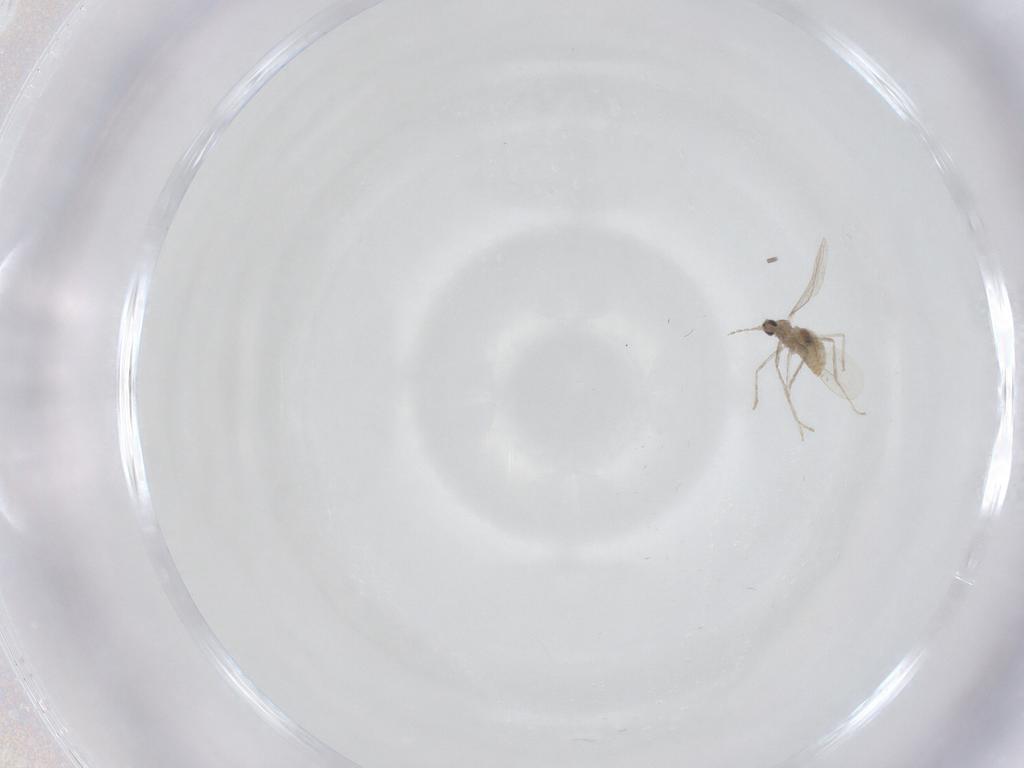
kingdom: Animalia
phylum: Arthropoda
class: Insecta
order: Diptera
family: Cecidomyiidae
